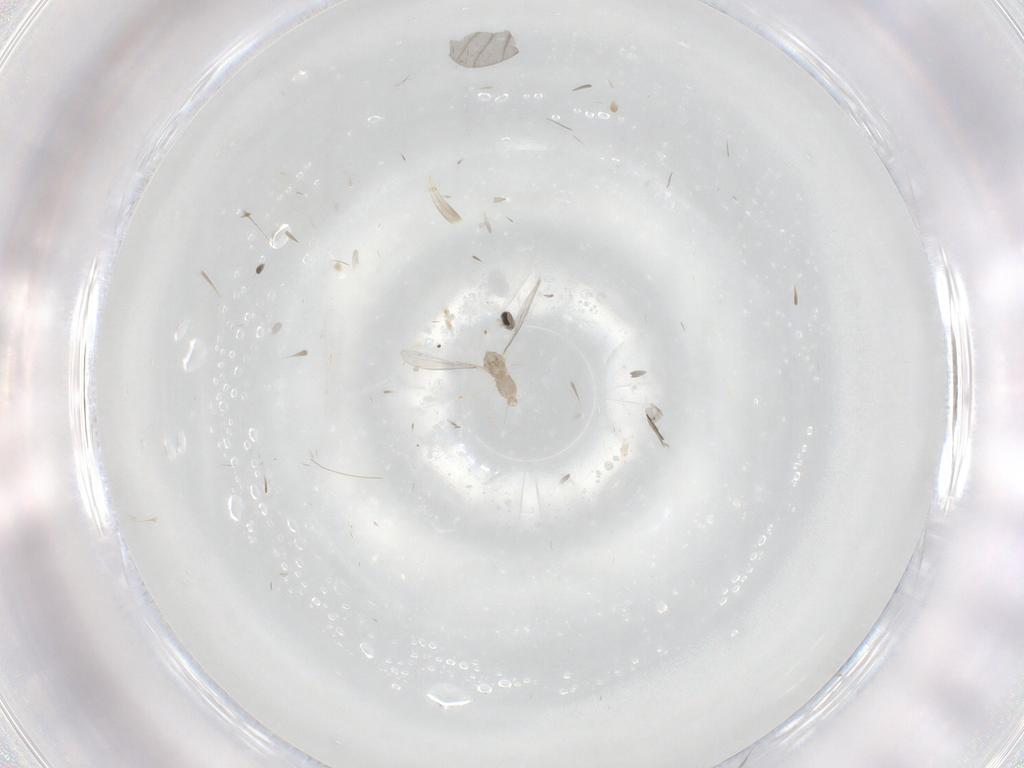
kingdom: Animalia
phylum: Arthropoda
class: Insecta
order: Diptera
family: Cecidomyiidae
